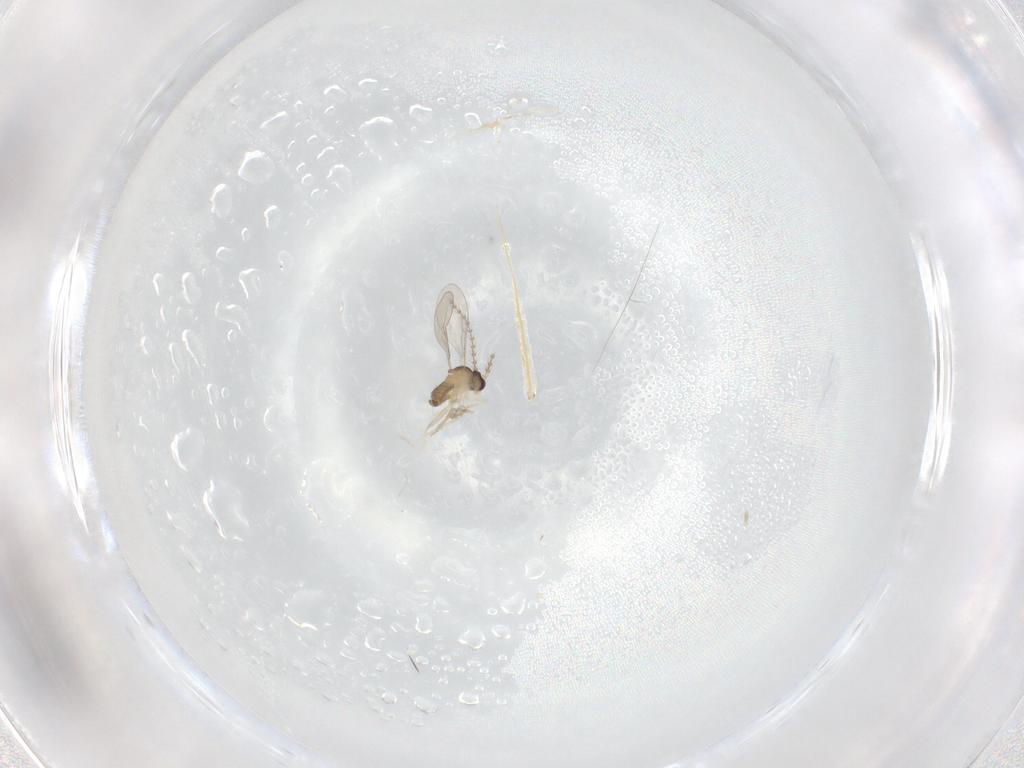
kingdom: Animalia
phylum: Arthropoda
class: Insecta
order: Diptera
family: Cecidomyiidae
